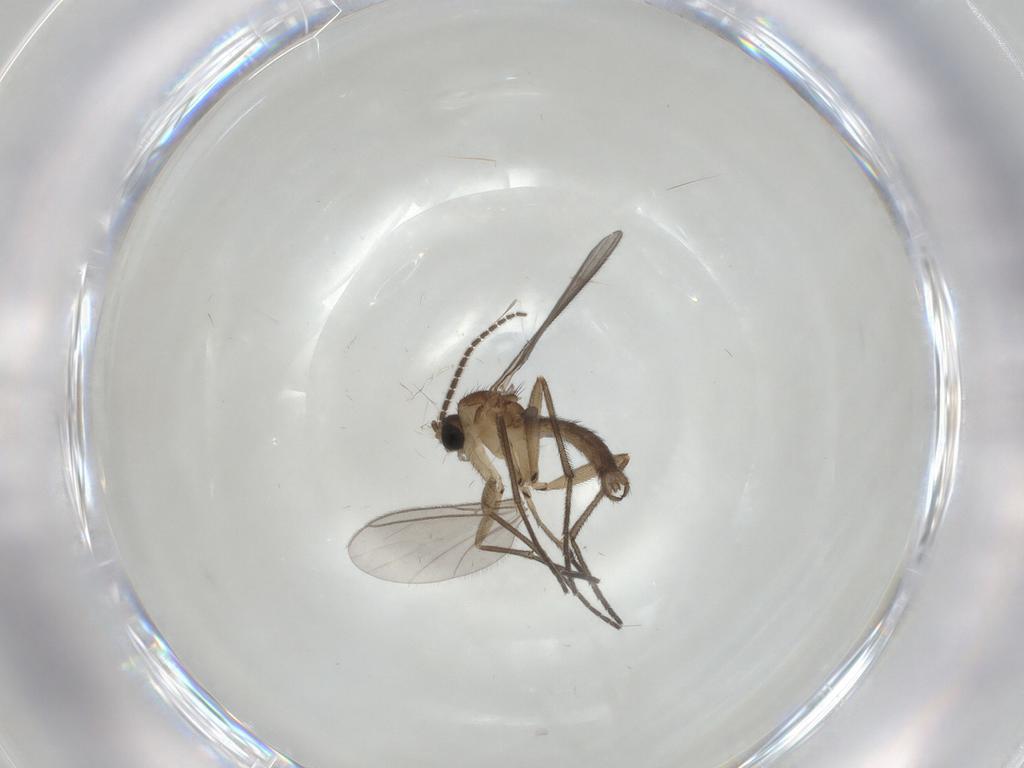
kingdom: Animalia
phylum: Arthropoda
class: Insecta
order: Diptera
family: Sciaridae
